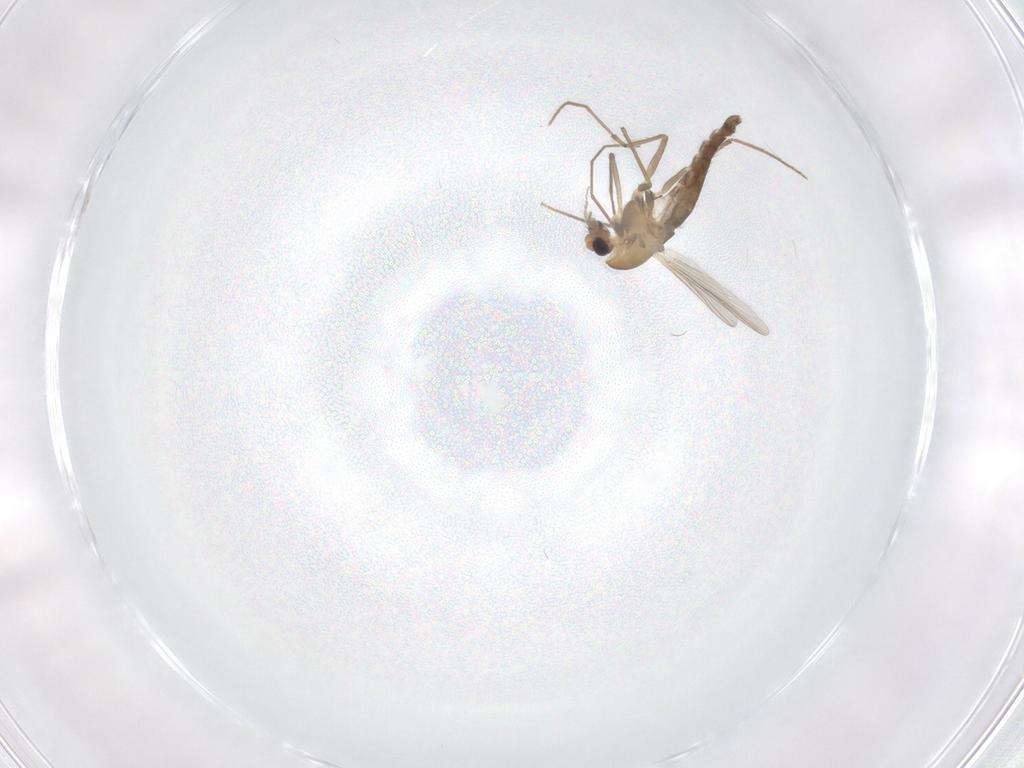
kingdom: Animalia
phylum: Arthropoda
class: Insecta
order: Diptera
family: Chironomidae
